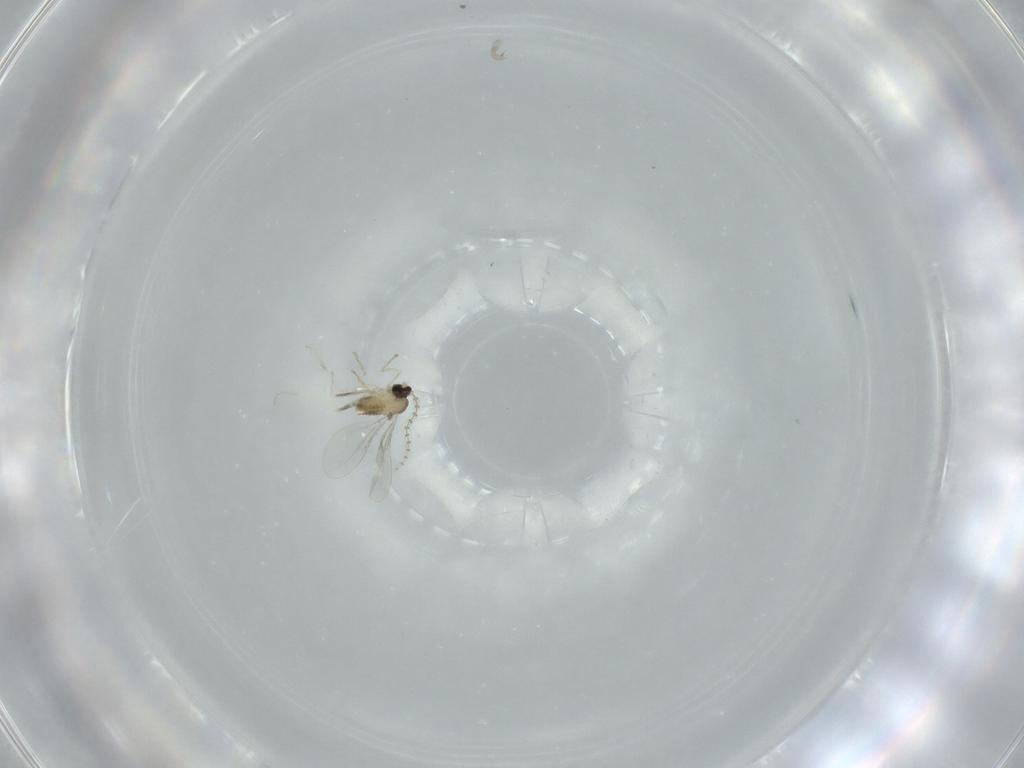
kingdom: Animalia
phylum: Arthropoda
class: Insecta
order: Diptera
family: Cecidomyiidae
